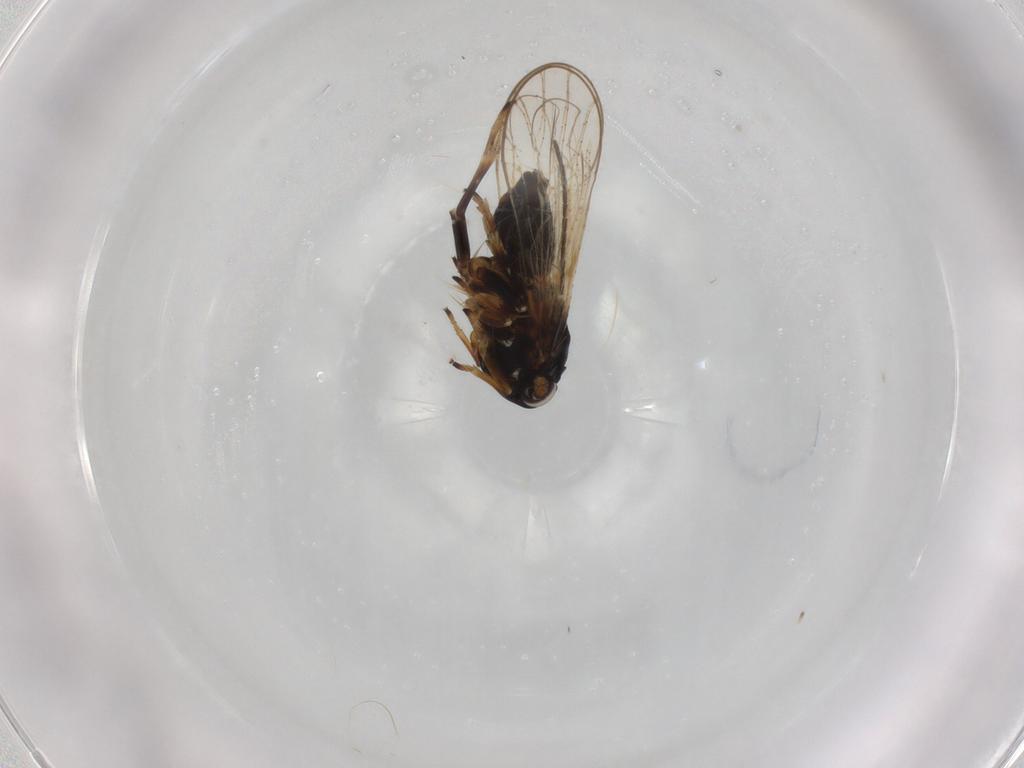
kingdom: Animalia
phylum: Arthropoda
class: Insecta
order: Hemiptera
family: Delphacidae
